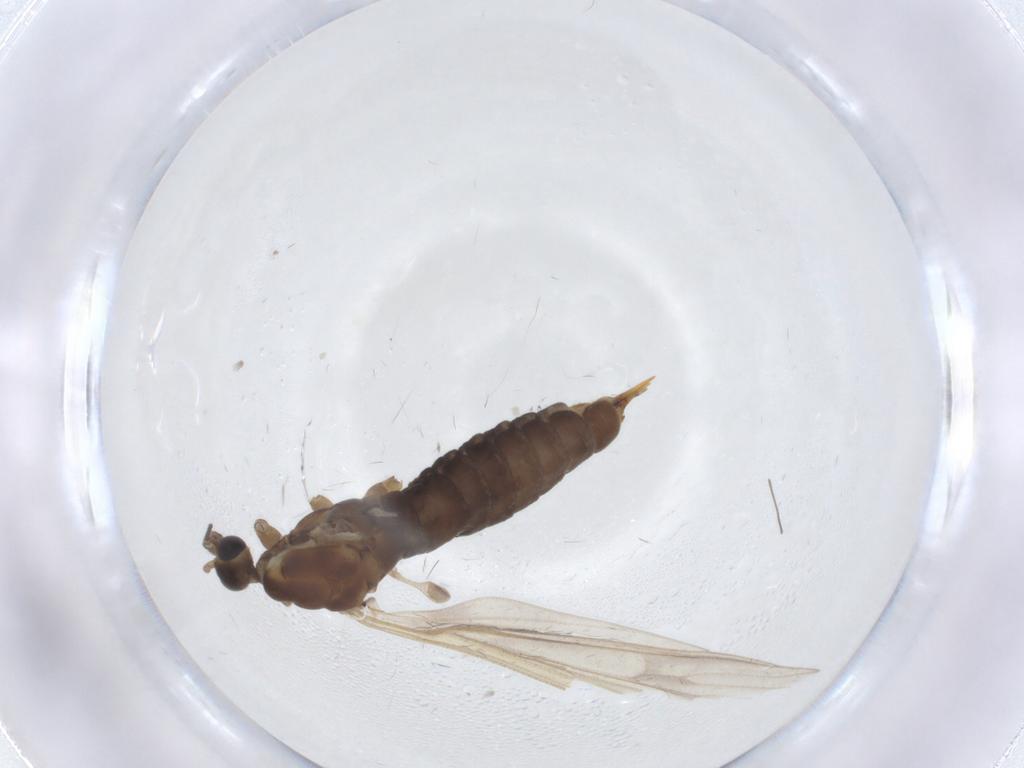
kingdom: Animalia
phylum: Arthropoda
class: Insecta
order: Diptera
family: Limoniidae
